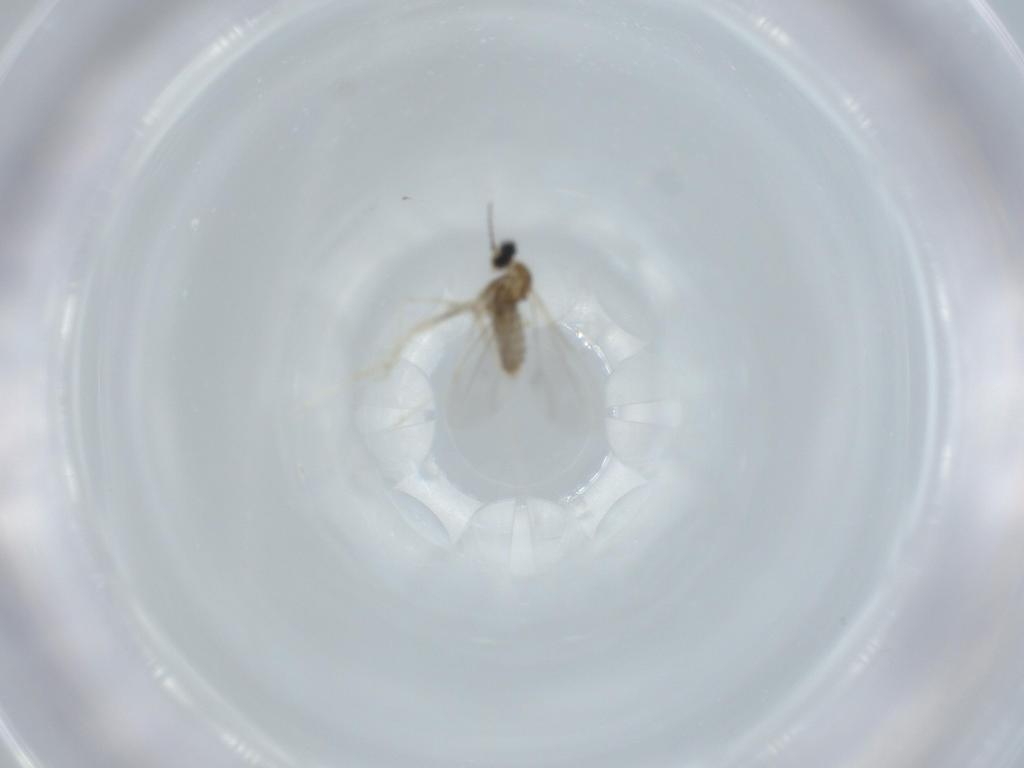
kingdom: Animalia
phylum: Arthropoda
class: Insecta
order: Diptera
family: Cecidomyiidae
